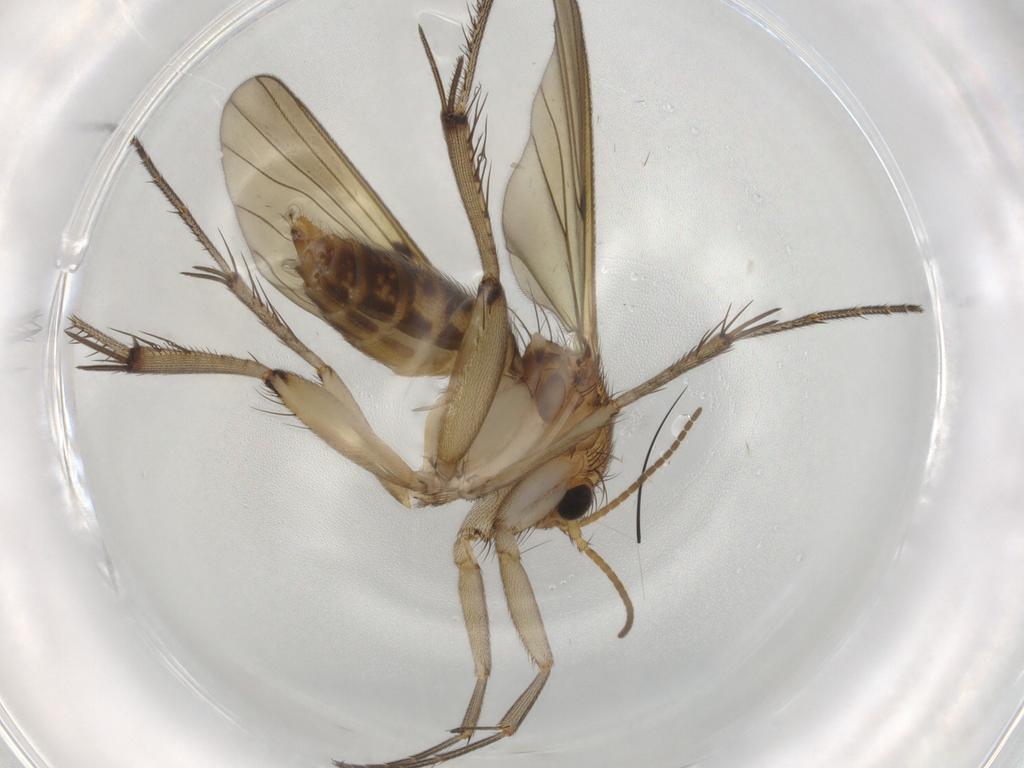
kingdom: Animalia
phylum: Arthropoda
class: Insecta
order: Diptera
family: Mycetophilidae
